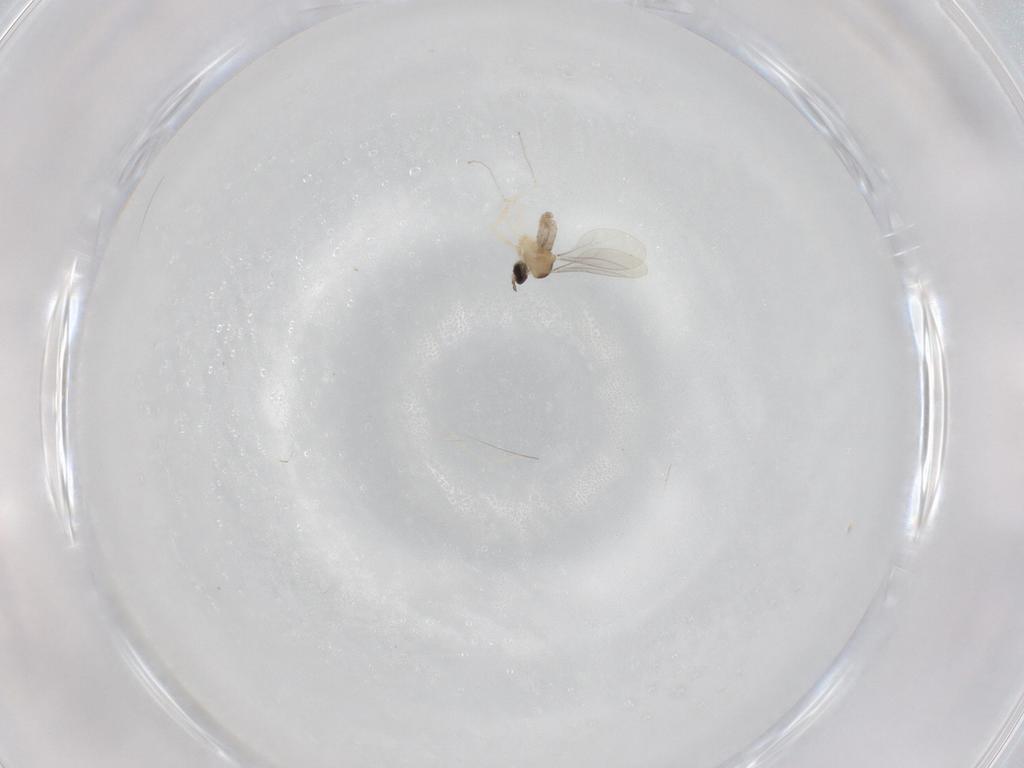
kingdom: Animalia
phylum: Arthropoda
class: Insecta
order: Diptera
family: Cecidomyiidae
